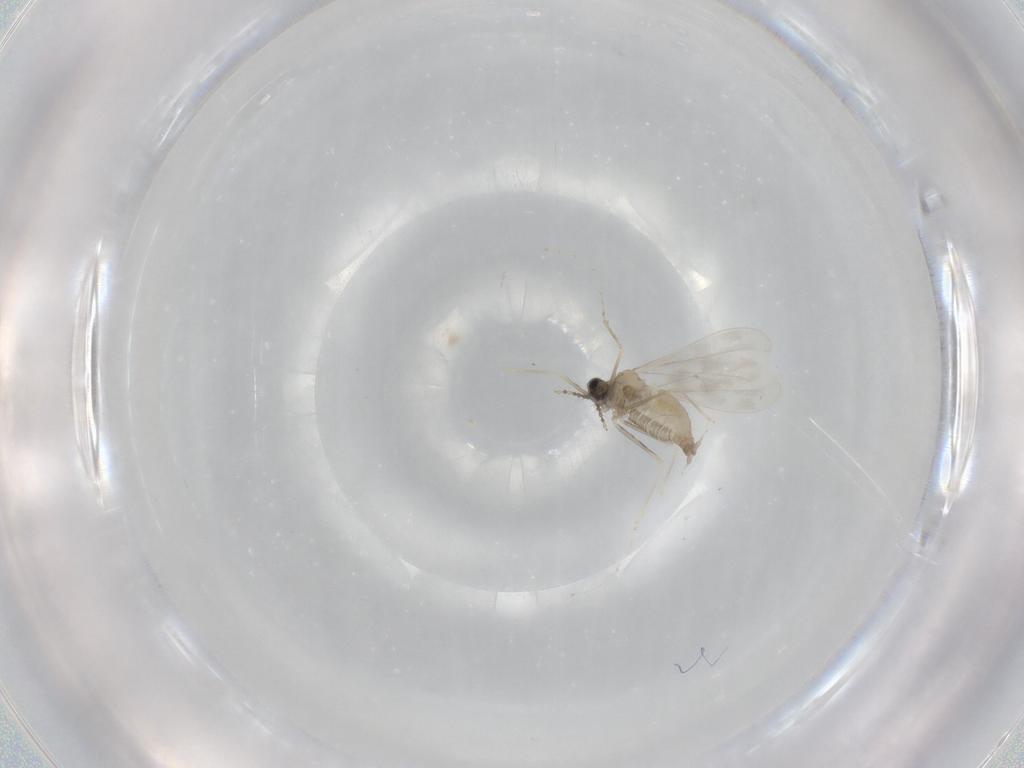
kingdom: Animalia
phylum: Arthropoda
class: Insecta
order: Diptera
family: Cecidomyiidae
